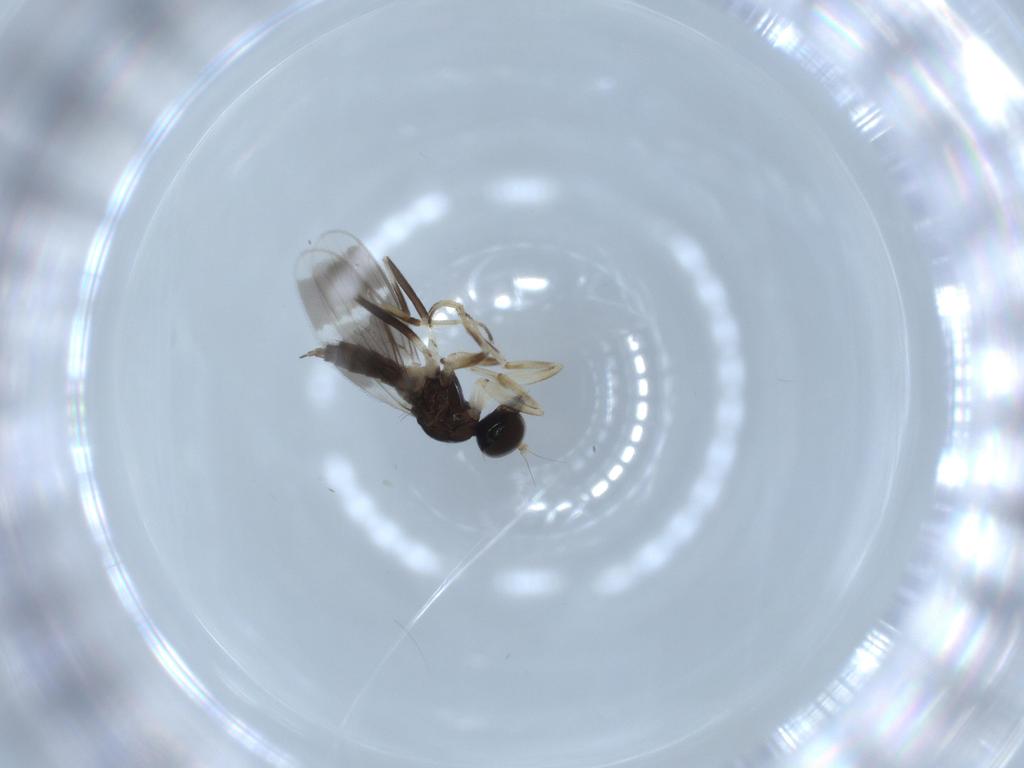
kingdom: Animalia
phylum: Arthropoda
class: Insecta
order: Diptera
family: Hybotidae
